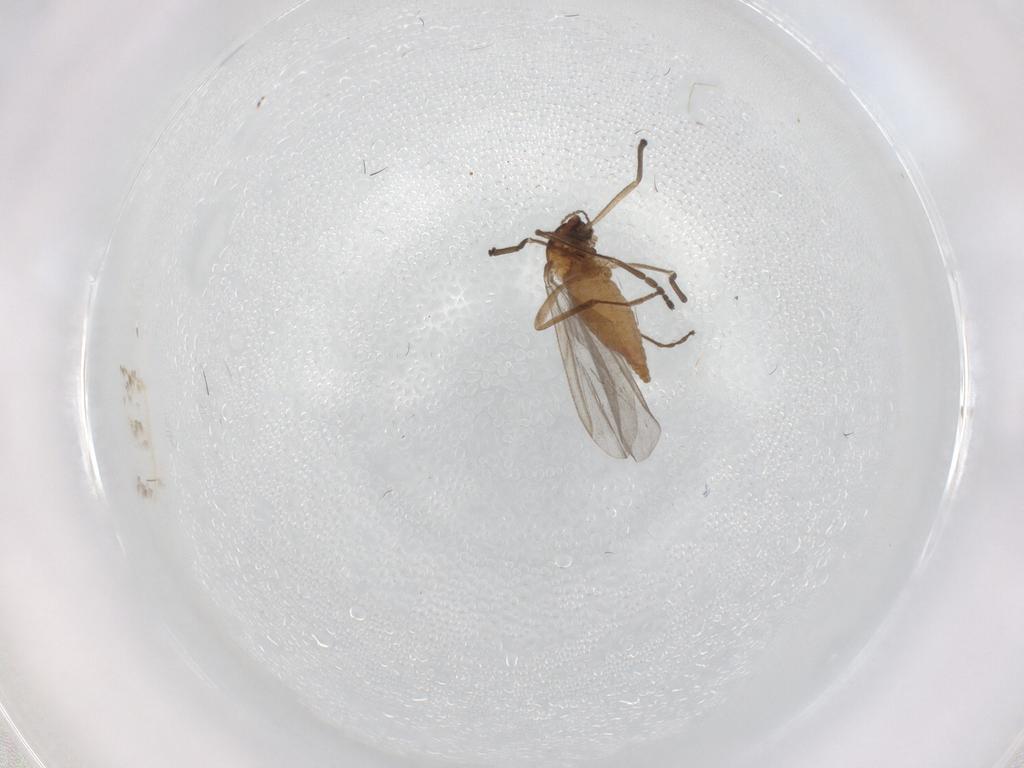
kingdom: Animalia
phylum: Arthropoda
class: Insecta
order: Diptera
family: Cecidomyiidae
